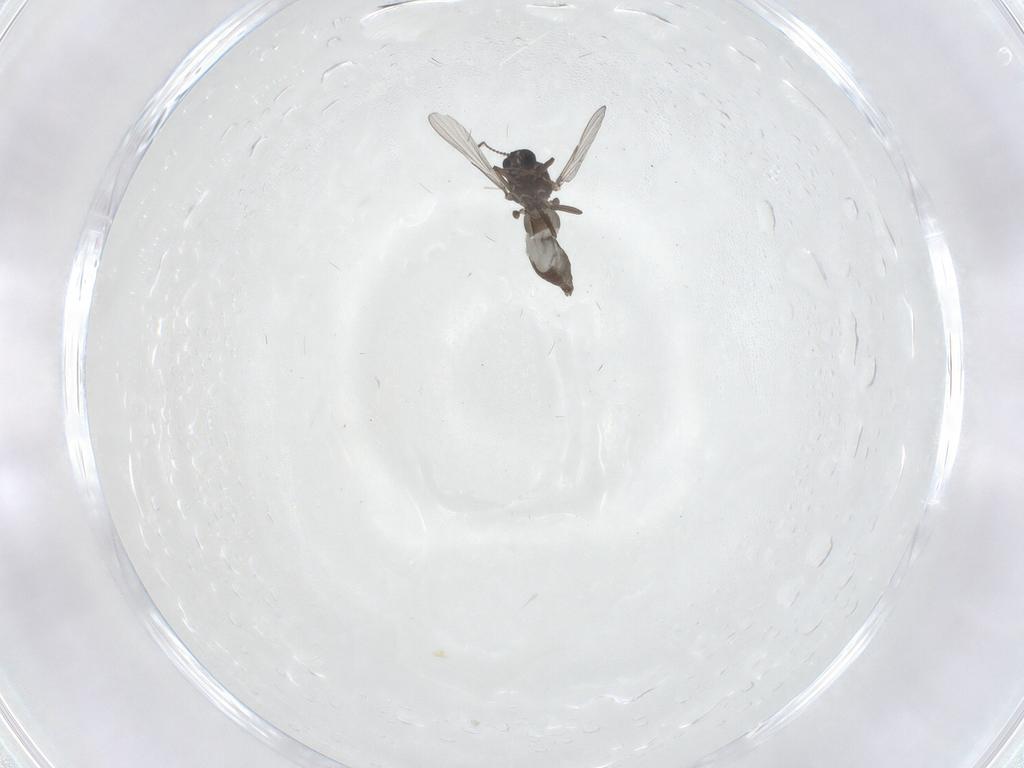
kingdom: Animalia
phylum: Arthropoda
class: Insecta
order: Diptera
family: Ceratopogonidae
